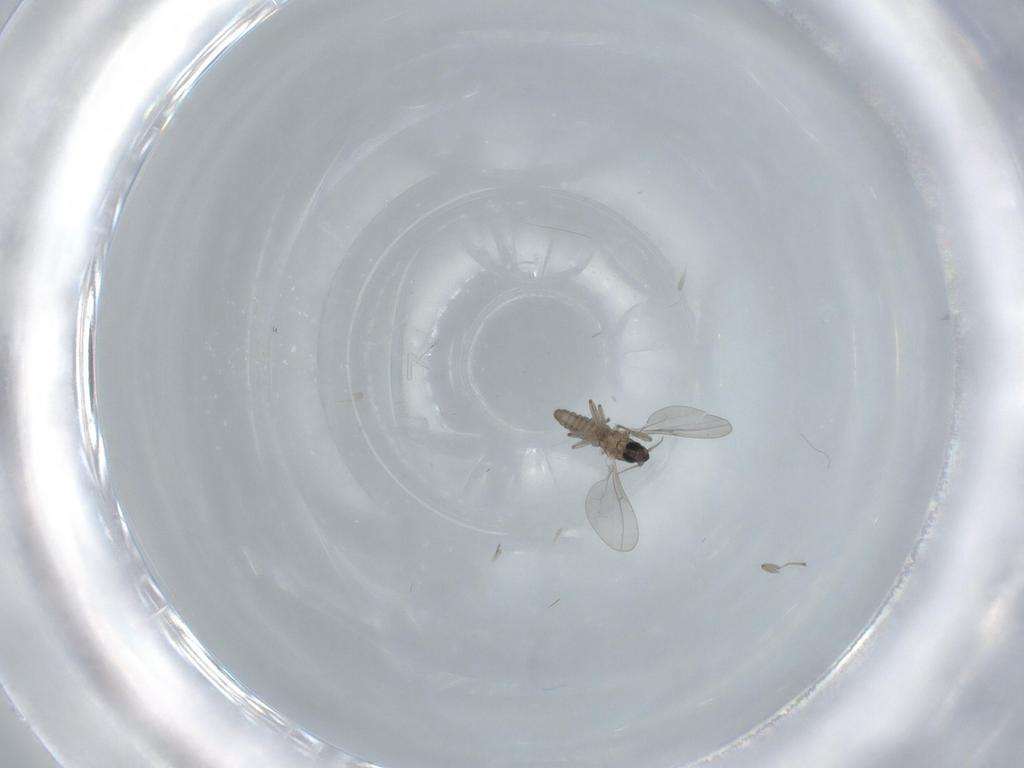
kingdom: Animalia
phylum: Arthropoda
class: Insecta
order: Diptera
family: Cecidomyiidae
